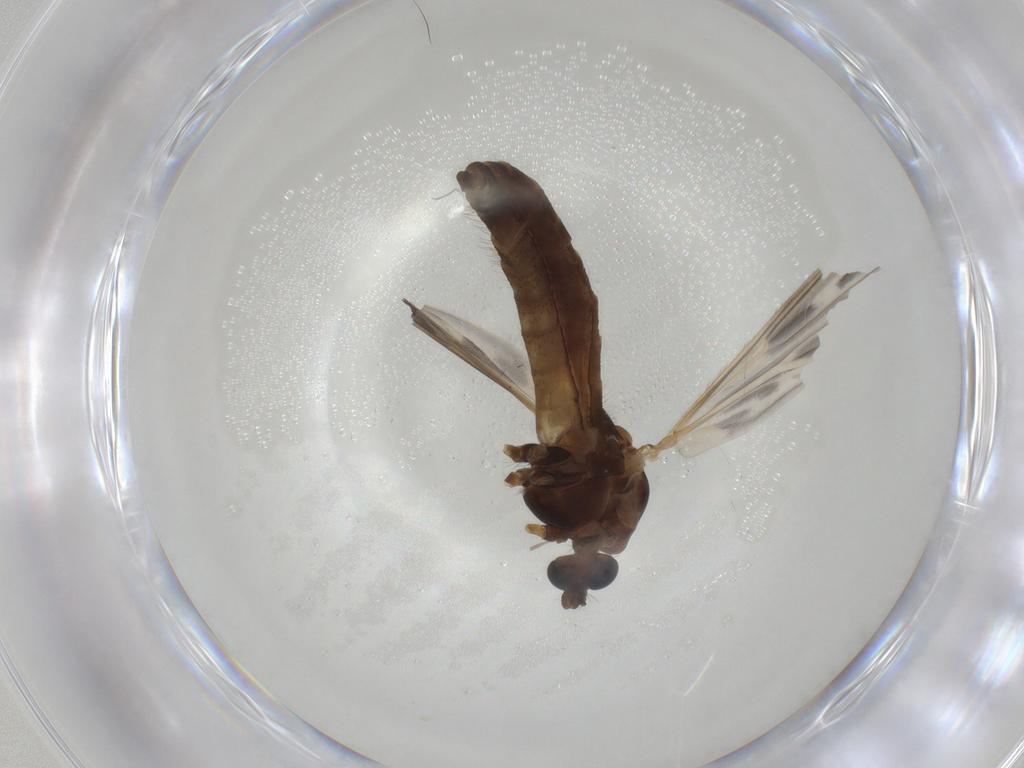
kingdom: Animalia
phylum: Arthropoda
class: Insecta
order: Diptera
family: Chironomidae
